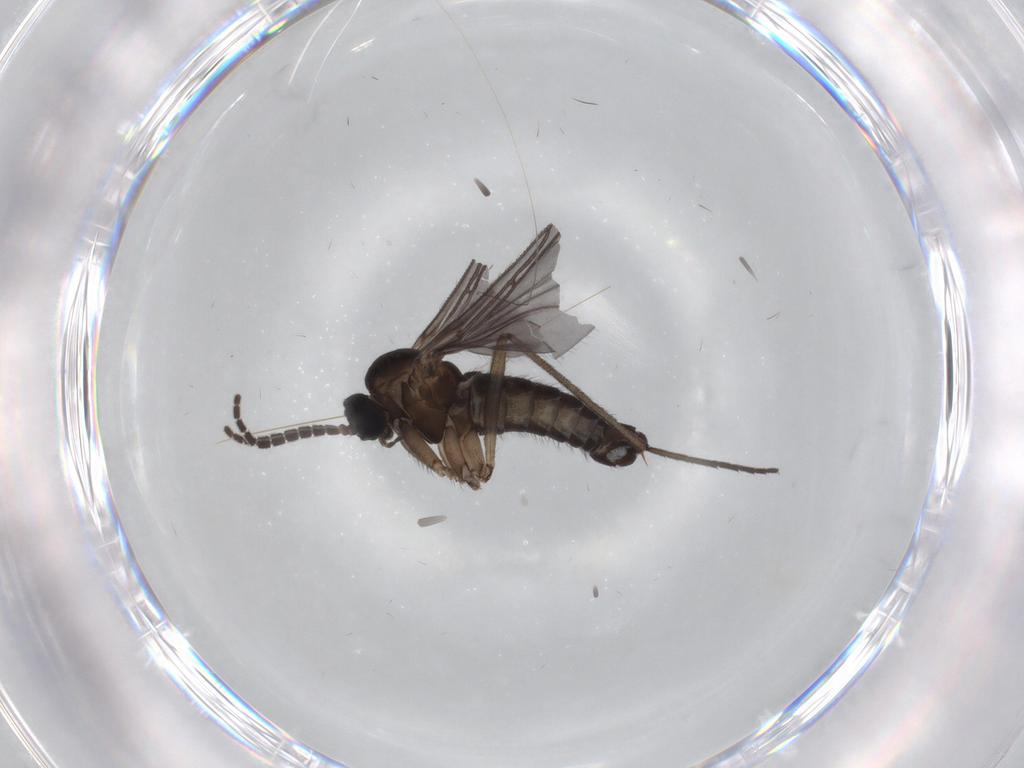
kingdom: Animalia
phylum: Arthropoda
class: Insecta
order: Diptera
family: Sciaridae
